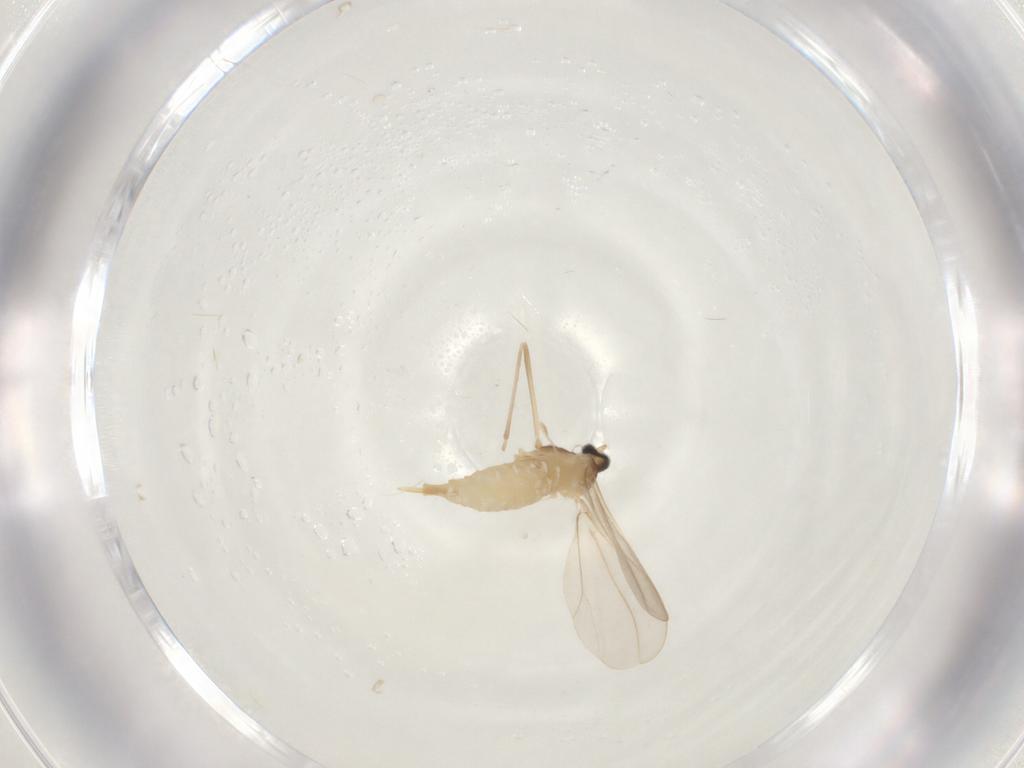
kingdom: Animalia
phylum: Arthropoda
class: Insecta
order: Diptera
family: Cecidomyiidae
